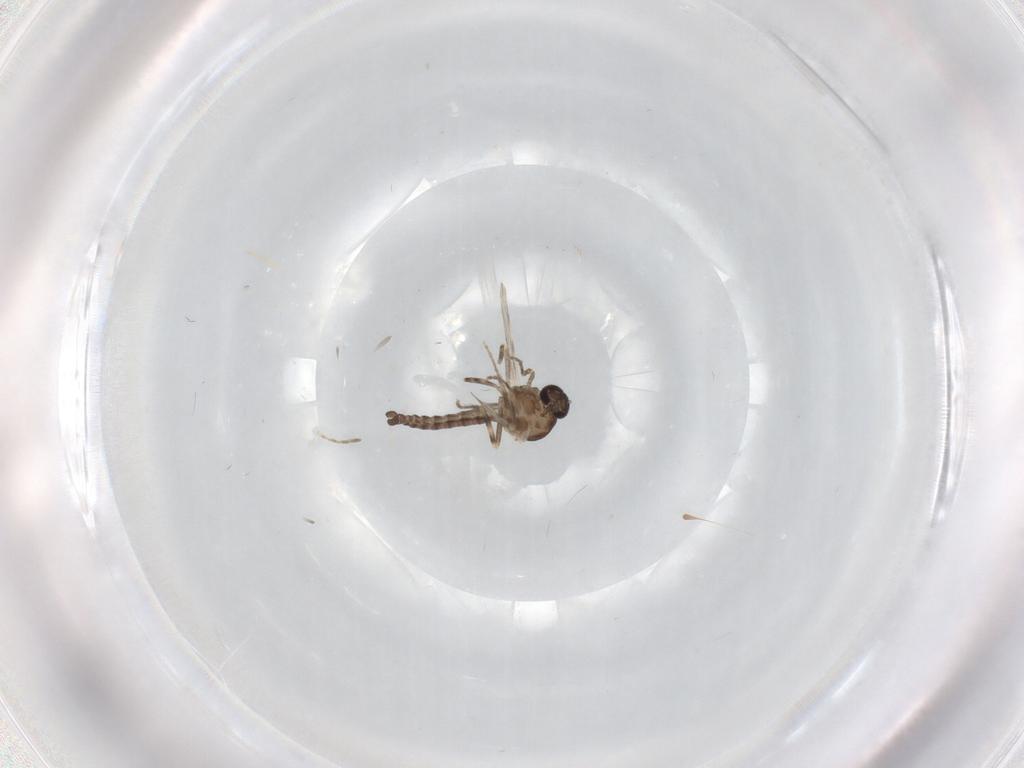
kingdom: Animalia
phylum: Arthropoda
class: Insecta
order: Diptera
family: Ceratopogonidae
